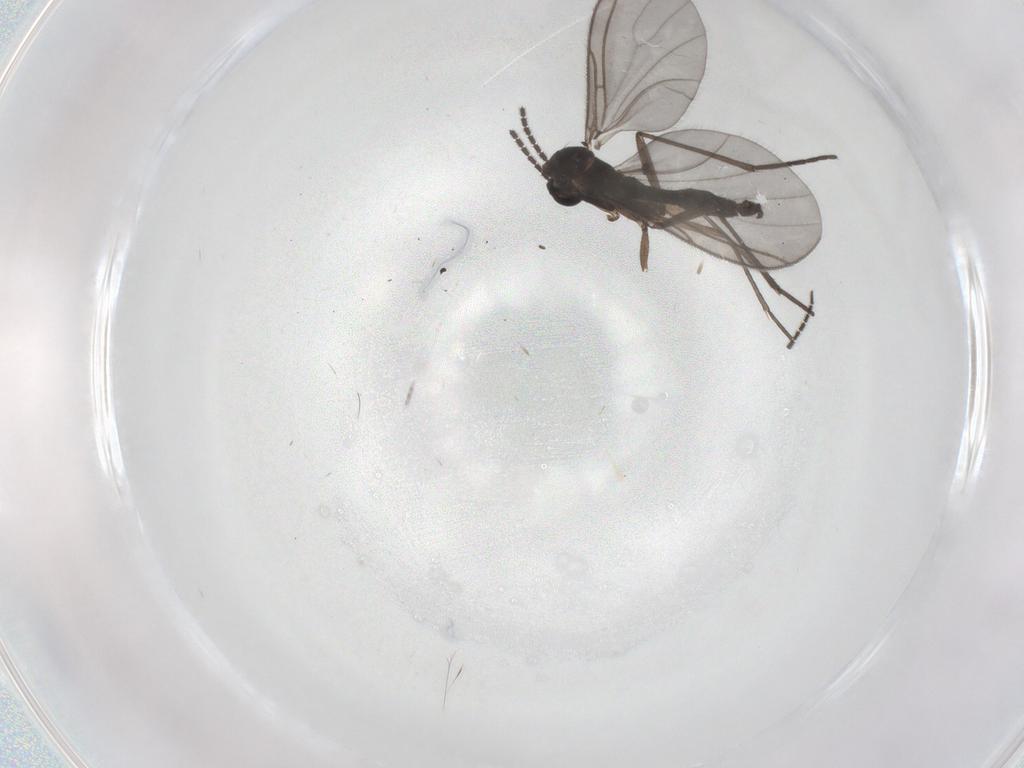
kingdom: Animalia
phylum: Arthropoda
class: Insecta
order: Diptera
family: Sciaridae
